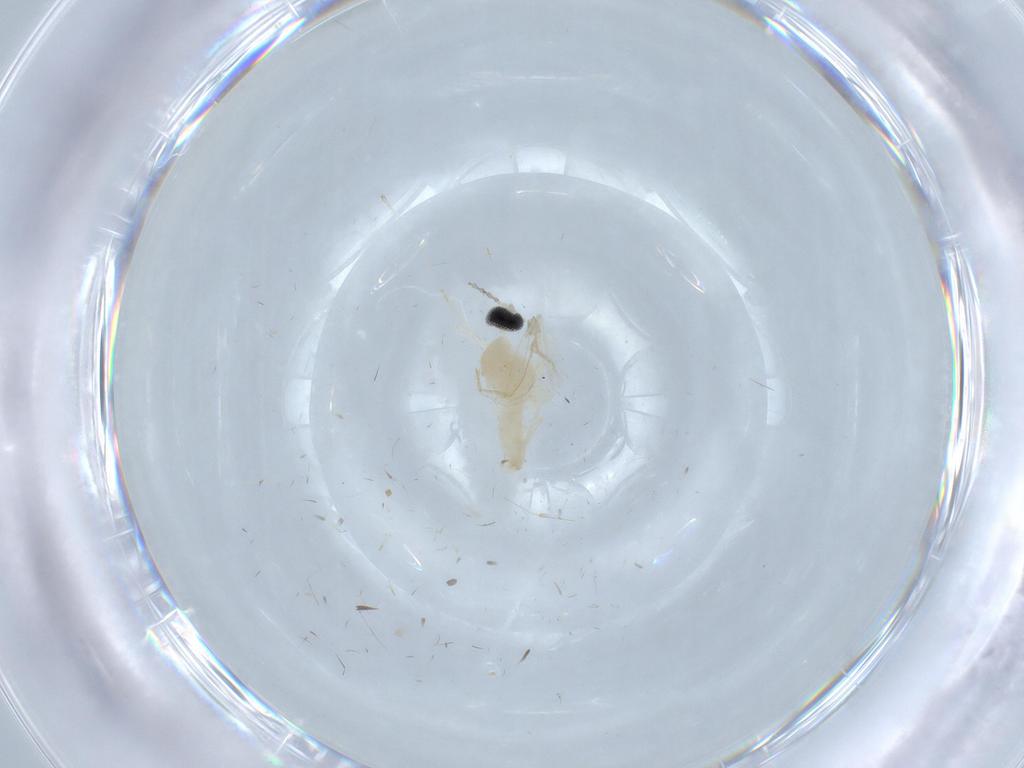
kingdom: Animalia
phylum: Arthropoda
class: Insecta
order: Diptera
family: Cecidomyiidae
